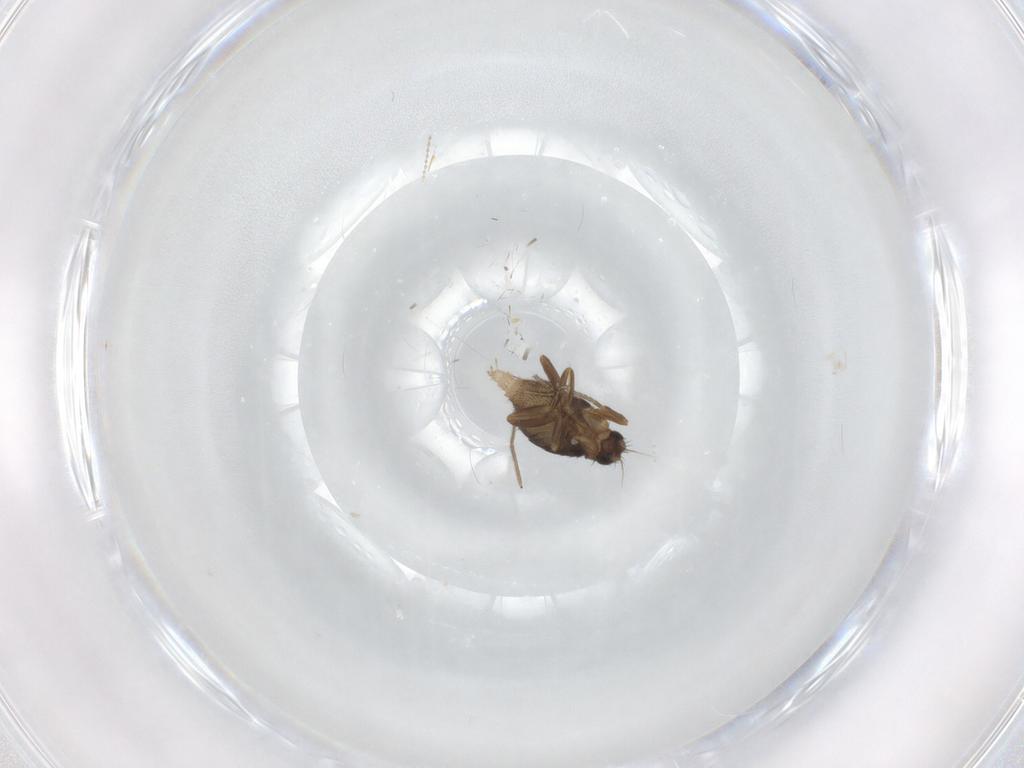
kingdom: Animalia
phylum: Arthropoda
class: Insecta
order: Diptera
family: Phoridae
